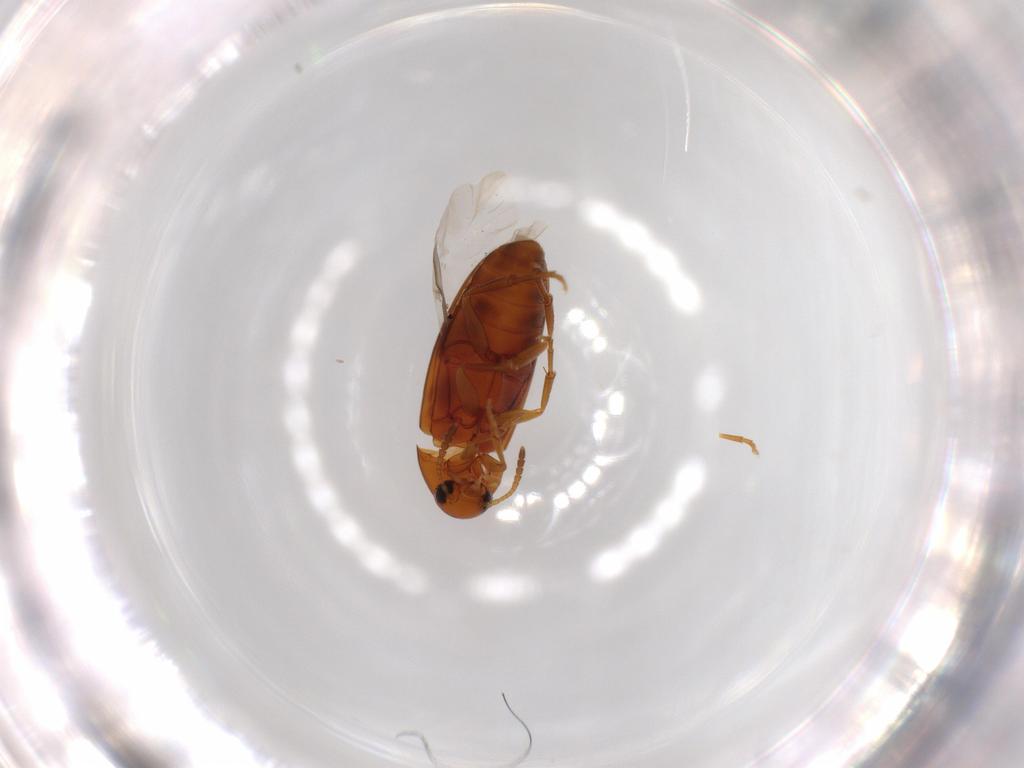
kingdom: Animalia
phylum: Arthropoda
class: Insecta
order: Coleoptera
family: Scraptiidae
